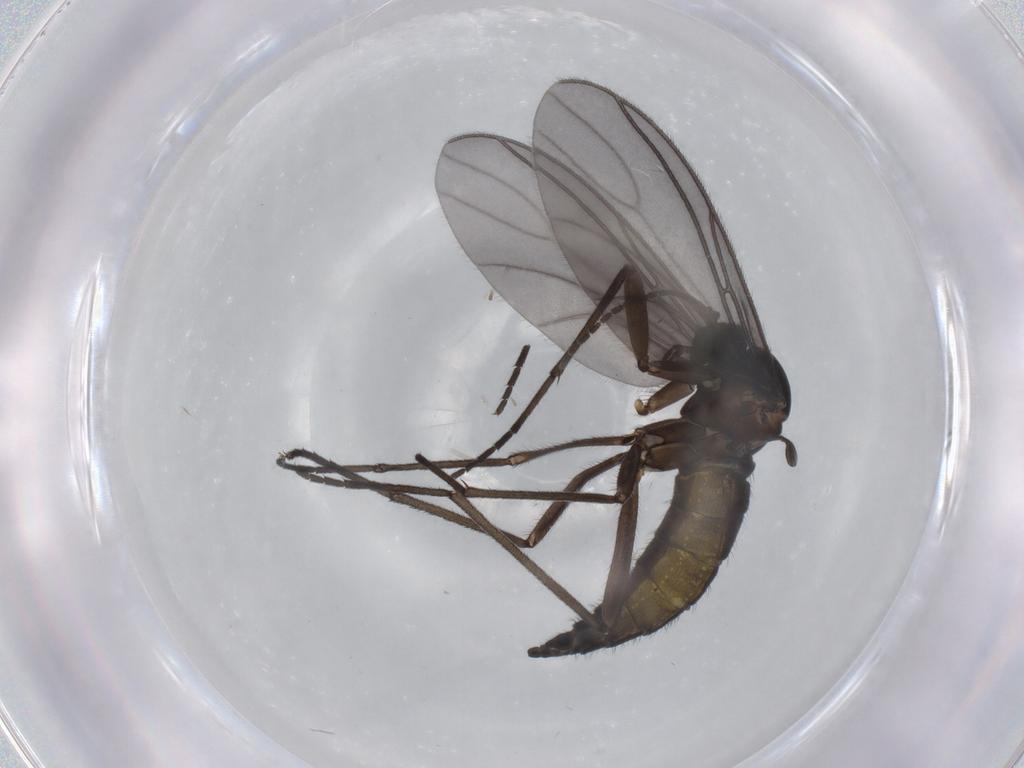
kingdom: Animalia
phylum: Arthropoda
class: Insecta
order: Diptera
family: Sciaridae
